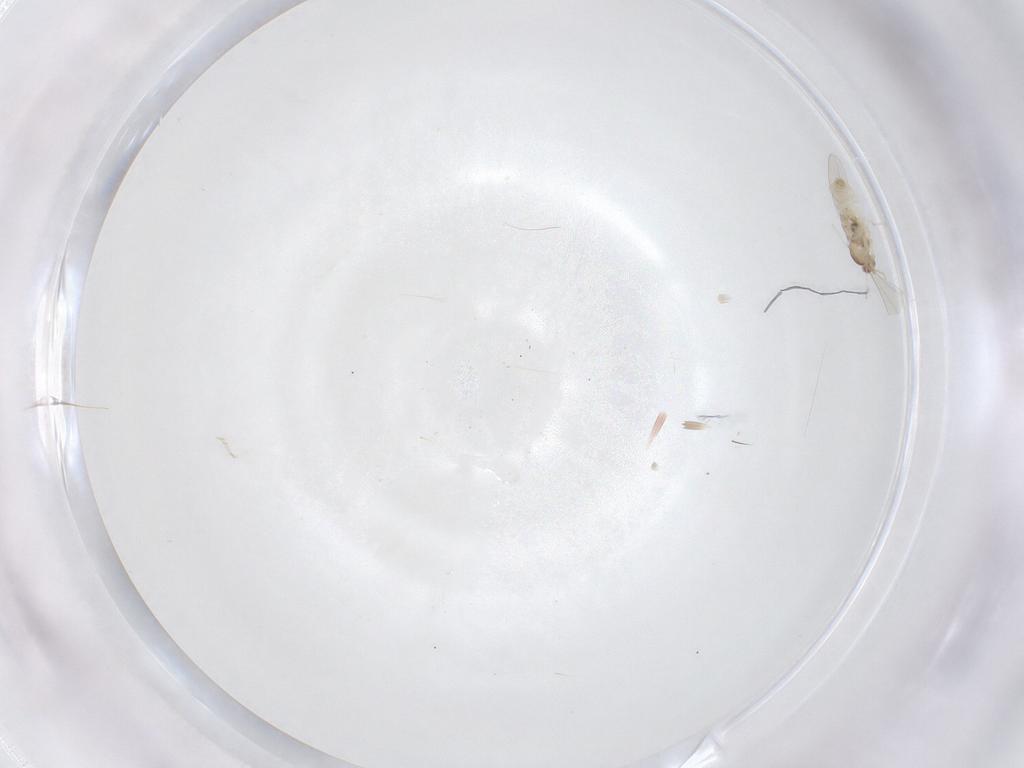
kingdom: Animalia
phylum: Arthropoda
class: Insecta
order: Diptera
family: Cecidomyiidae
